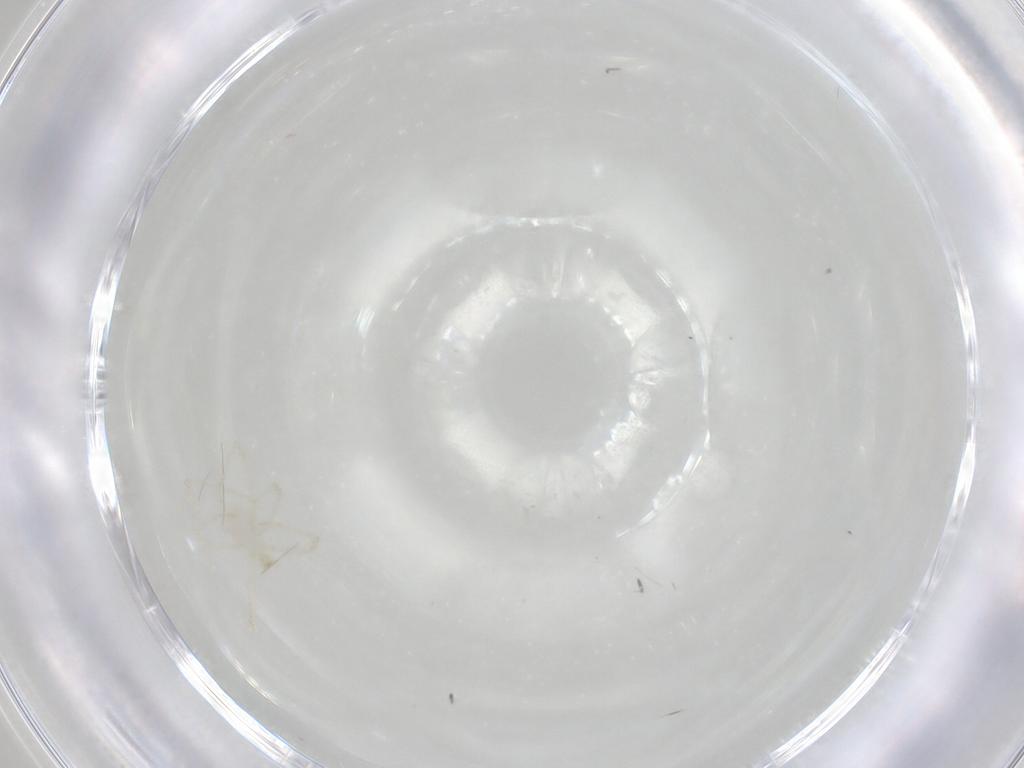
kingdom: Animalia
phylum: Arthropoda
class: Arachnida
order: Trombidiformes
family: Erythraeidae
